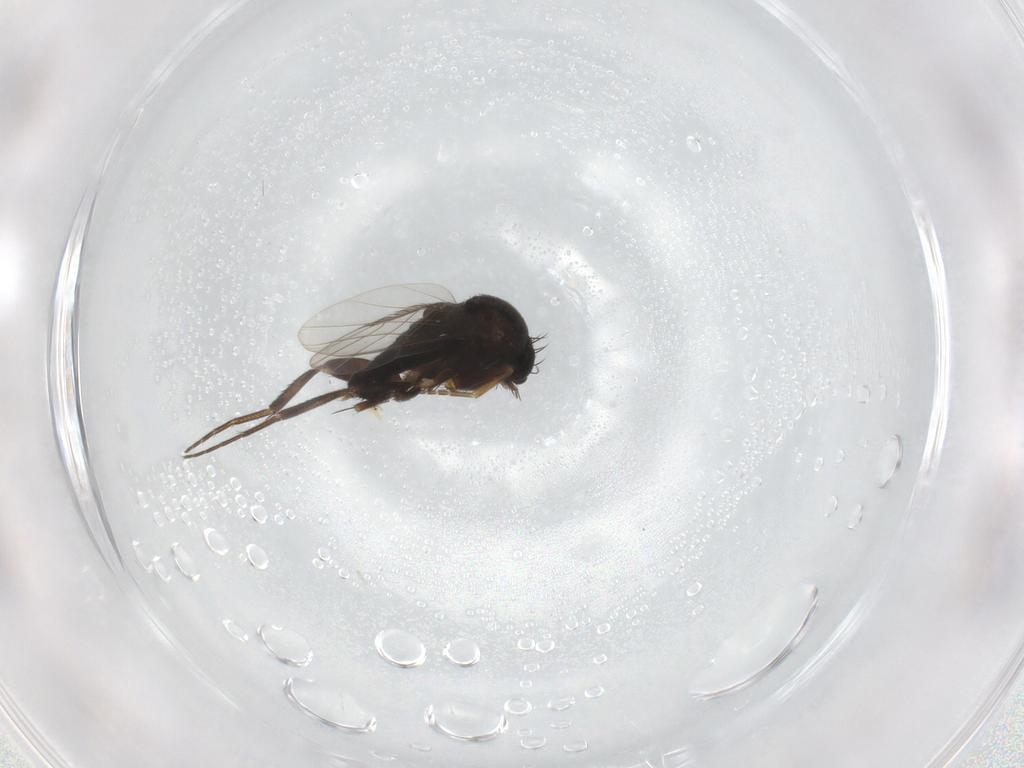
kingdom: Animalia
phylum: Arthropoda
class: Insecta
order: Diptera
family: Phoridae
